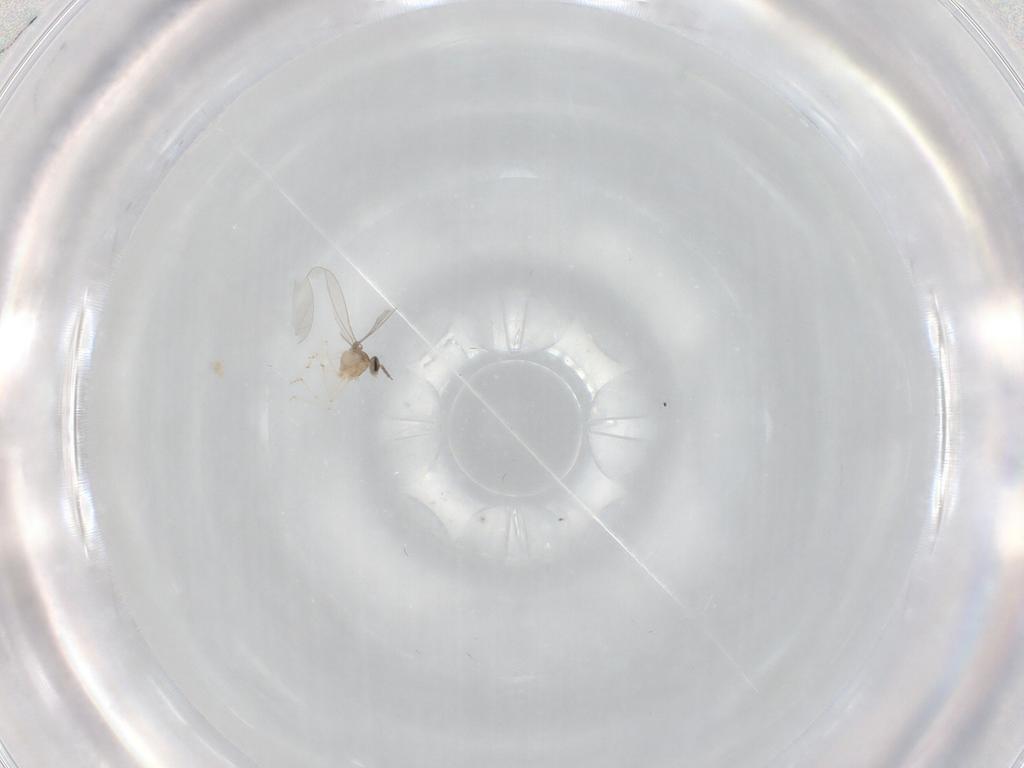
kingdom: Animalia
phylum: Arthropoda
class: Insecta
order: Diptera
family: Cecidomyiidae
